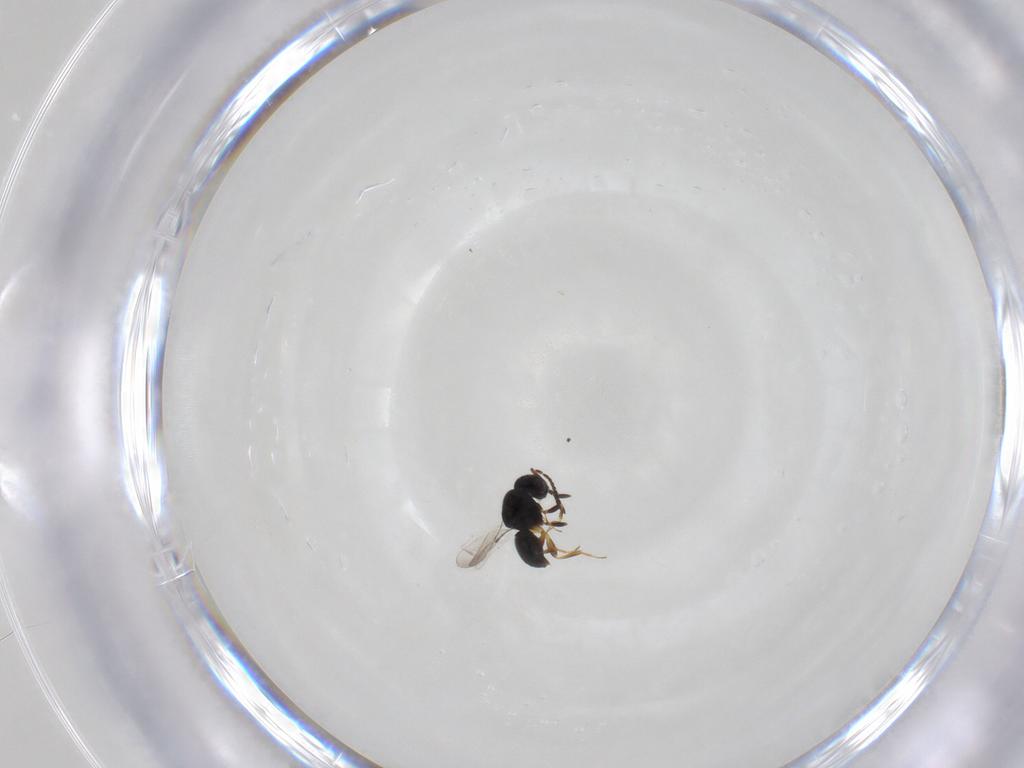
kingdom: Animalia
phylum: Arthropoda
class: Insecta
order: Hymenoptera
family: Ceraphronidae
